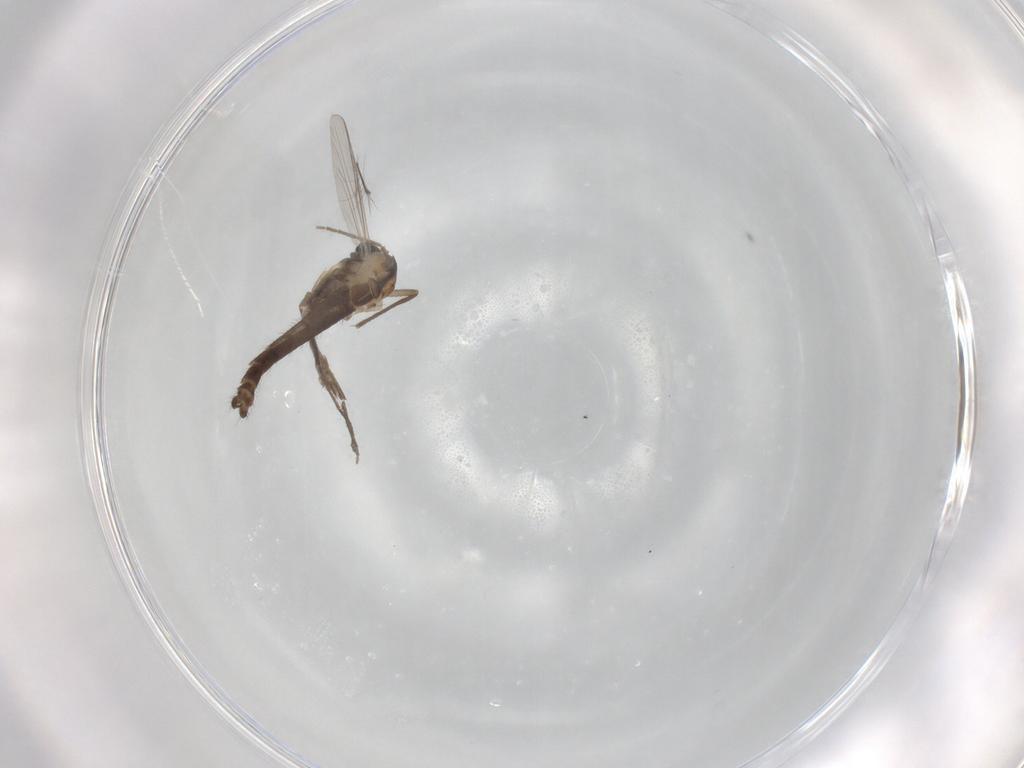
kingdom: Animalia
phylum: Arthropoda
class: Insecta
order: Diptera
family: Chironomidae
